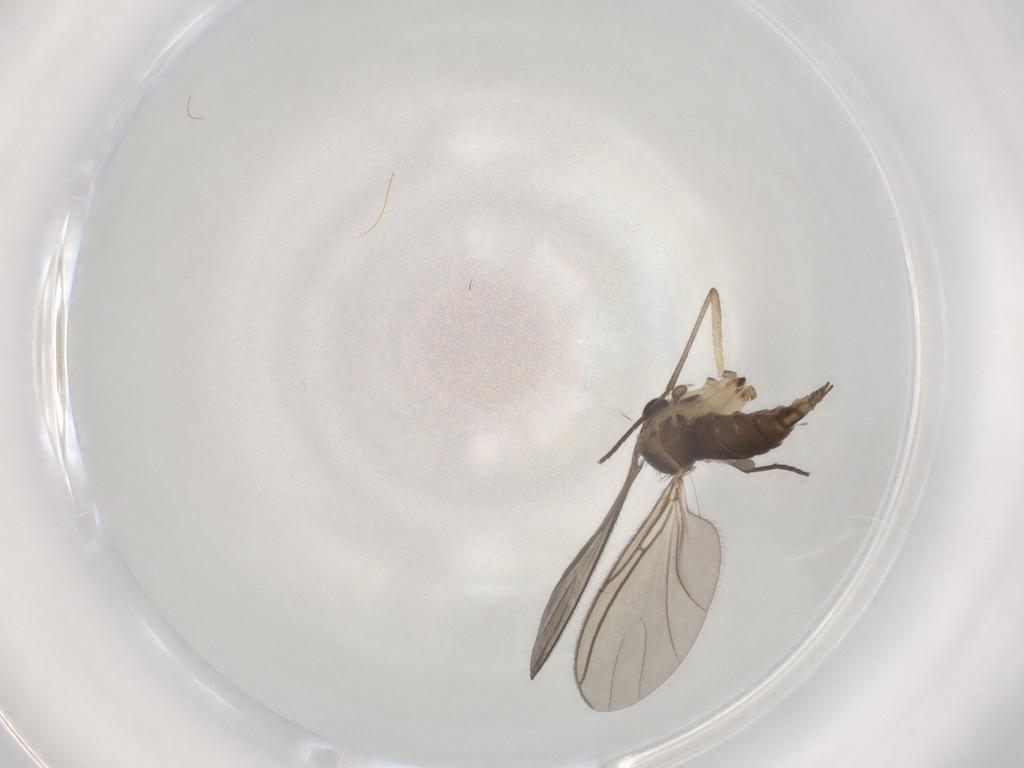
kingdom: Animalia
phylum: Arthropoda
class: Insecta
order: Diptera
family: Sciaridae
